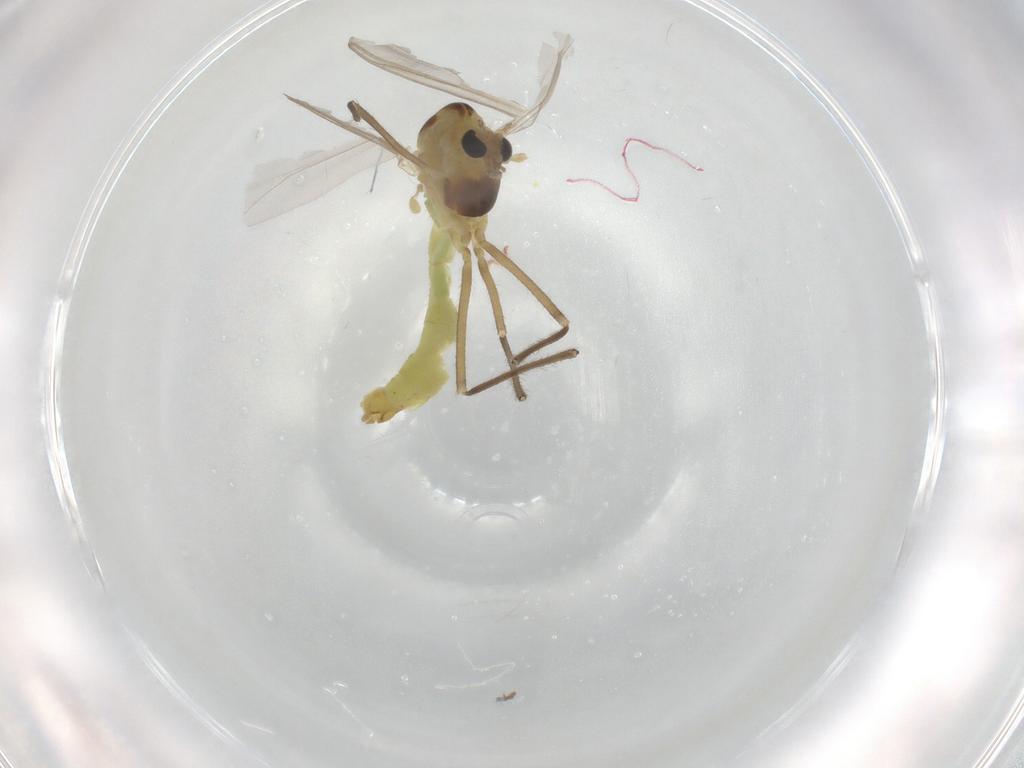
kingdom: Animalia
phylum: Arthropoda
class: Insecta
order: Diptera
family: Chironomidae
